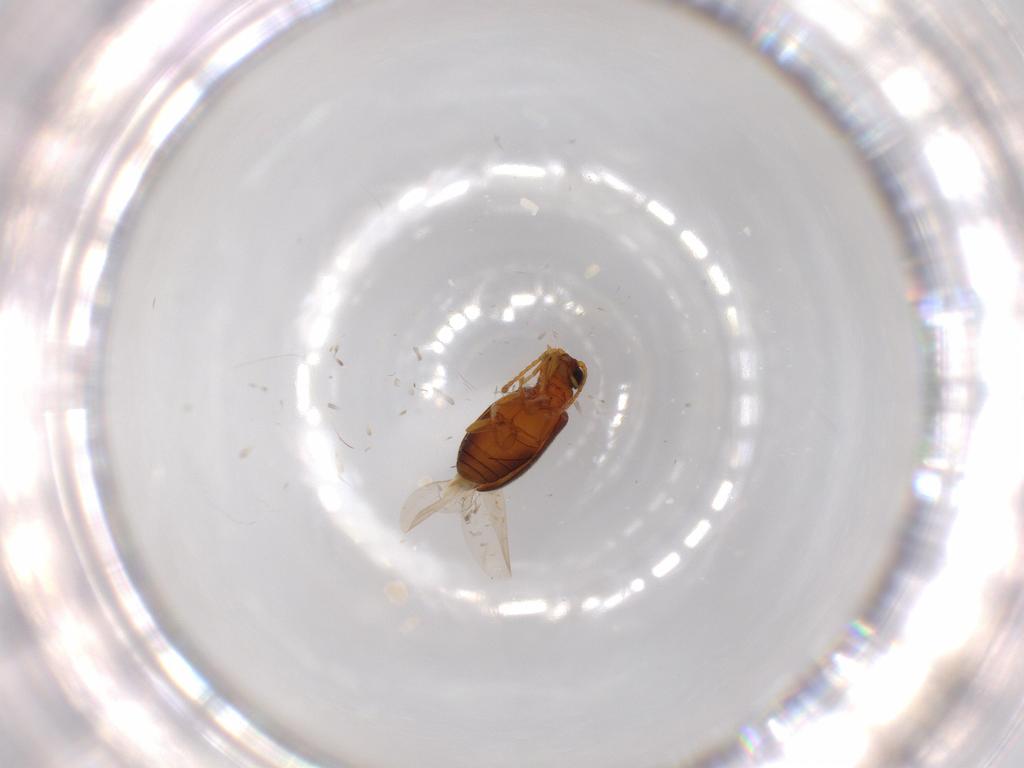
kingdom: Animalia
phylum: Arthropoda
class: Insecta
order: Coleoptera
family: Aderidae
